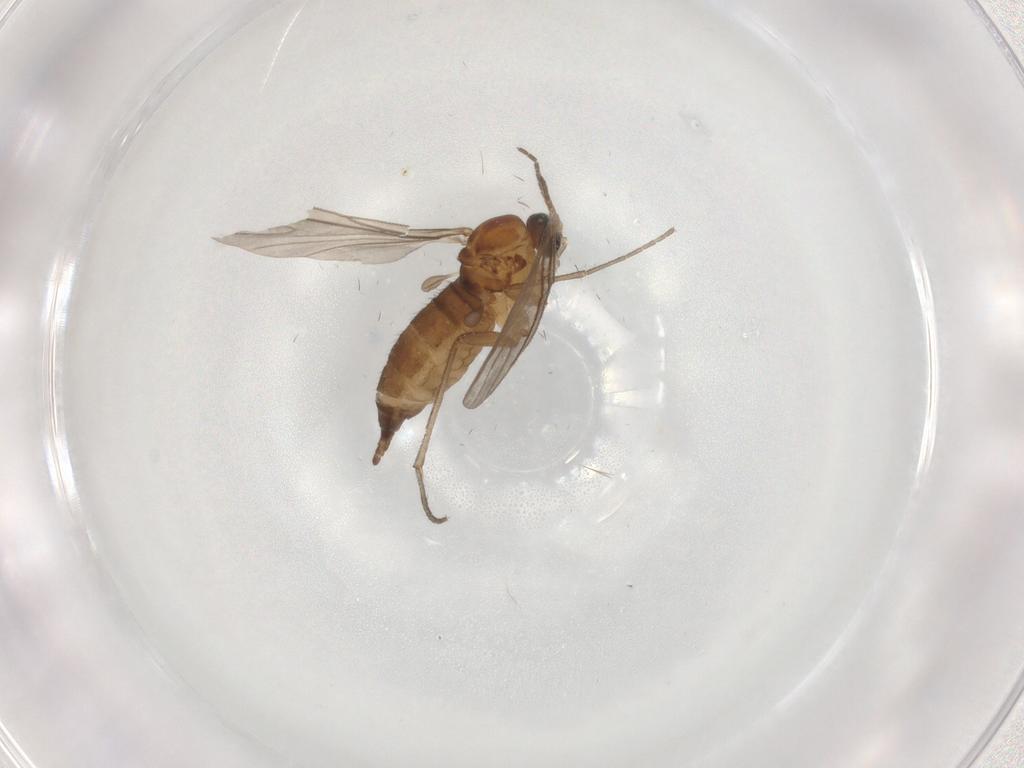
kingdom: Animalia
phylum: Arthropoda
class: Insecta
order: Diptera
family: Sciaridae
